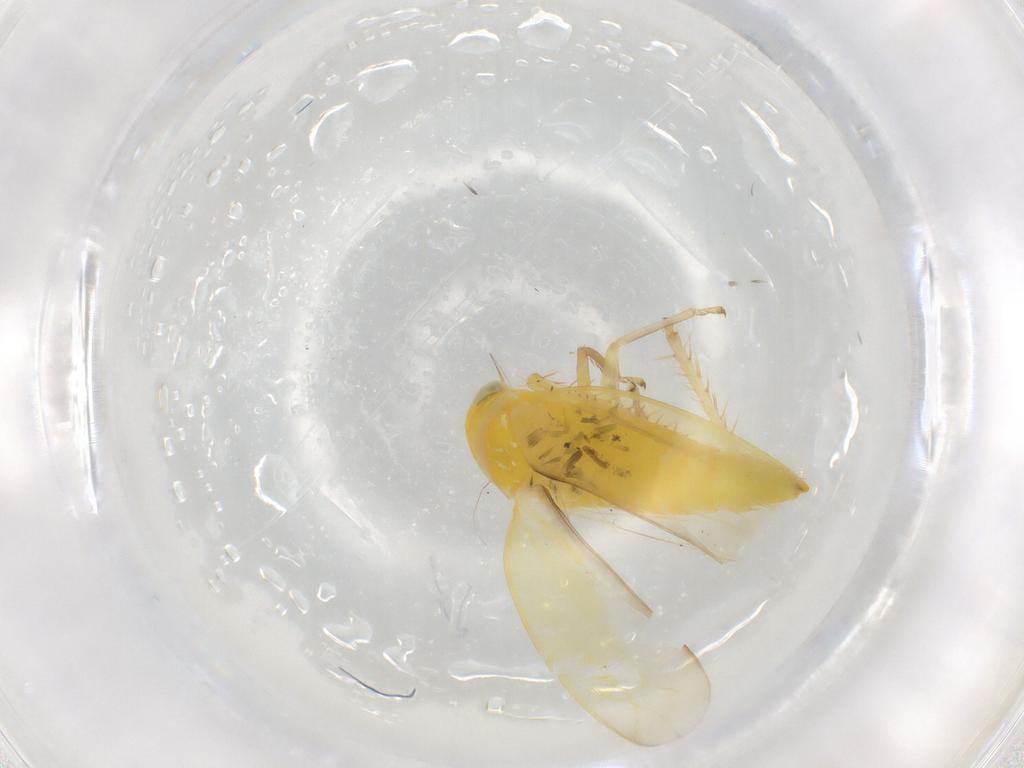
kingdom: Animalia
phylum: Arthropoda
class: Insecta
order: Hemiptera
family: Cicadellidae
